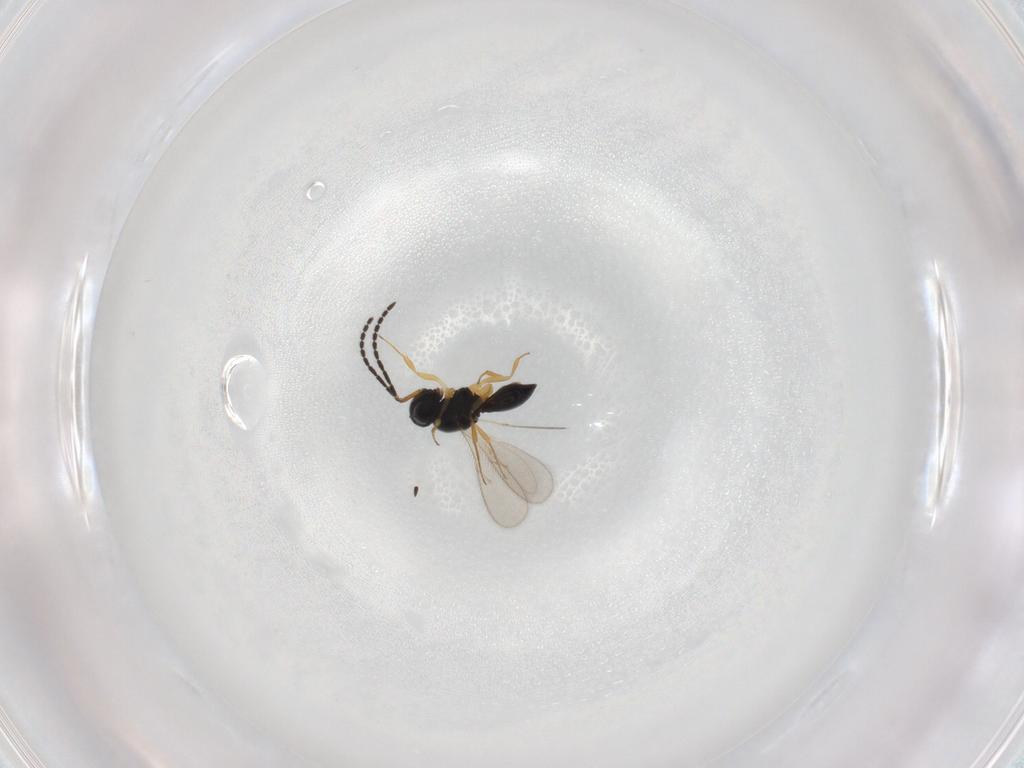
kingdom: Animalia
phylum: Arthropoda
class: Insecta
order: Hymenoptera
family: Scelionidae
